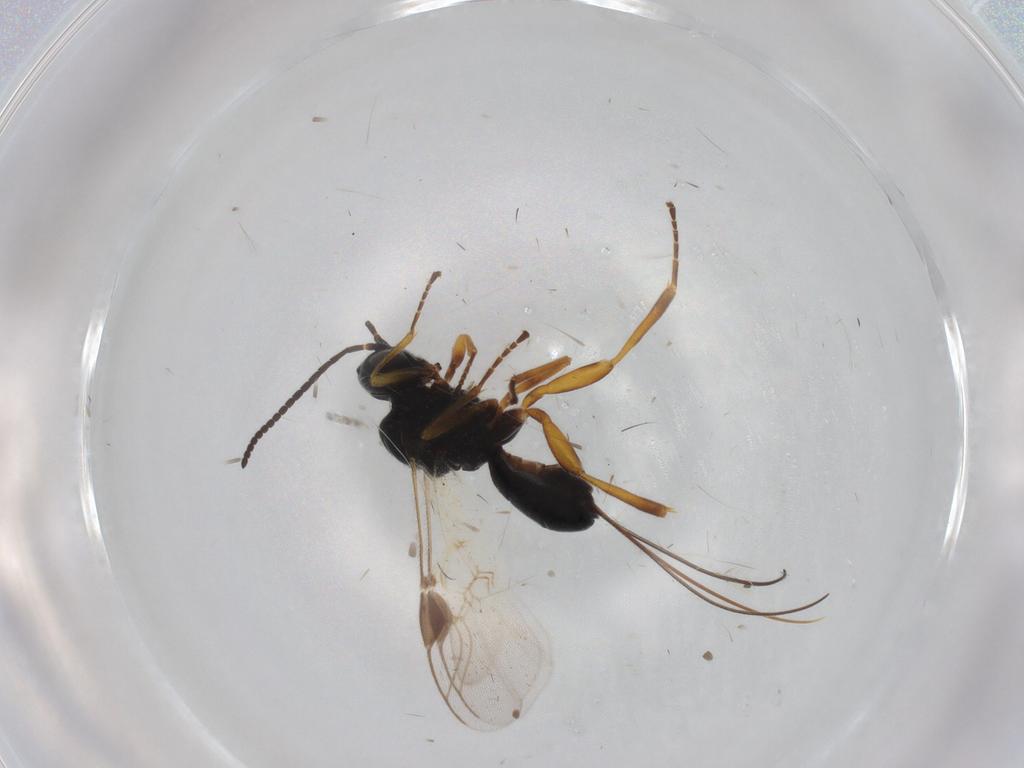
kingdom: Animalia
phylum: Arthropoda
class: Insecta
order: Hymenoptera
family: Braconidae
